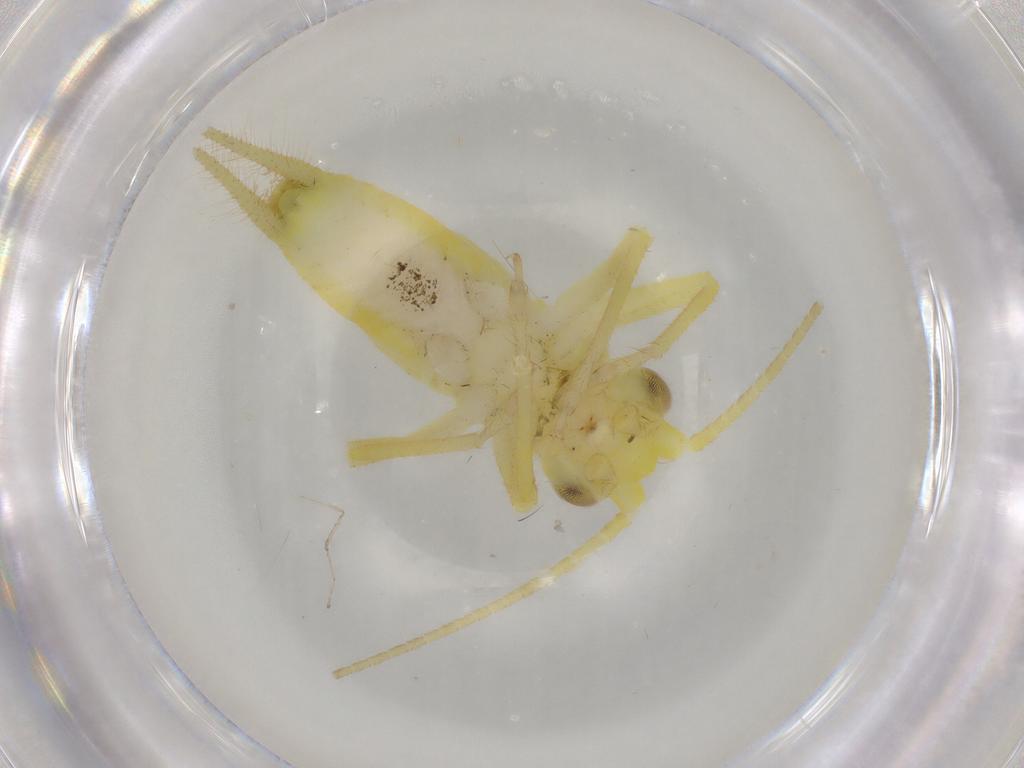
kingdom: Animalia
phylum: Arthropoda
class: Insecta
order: Orthoptera
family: Trigonidiidae
